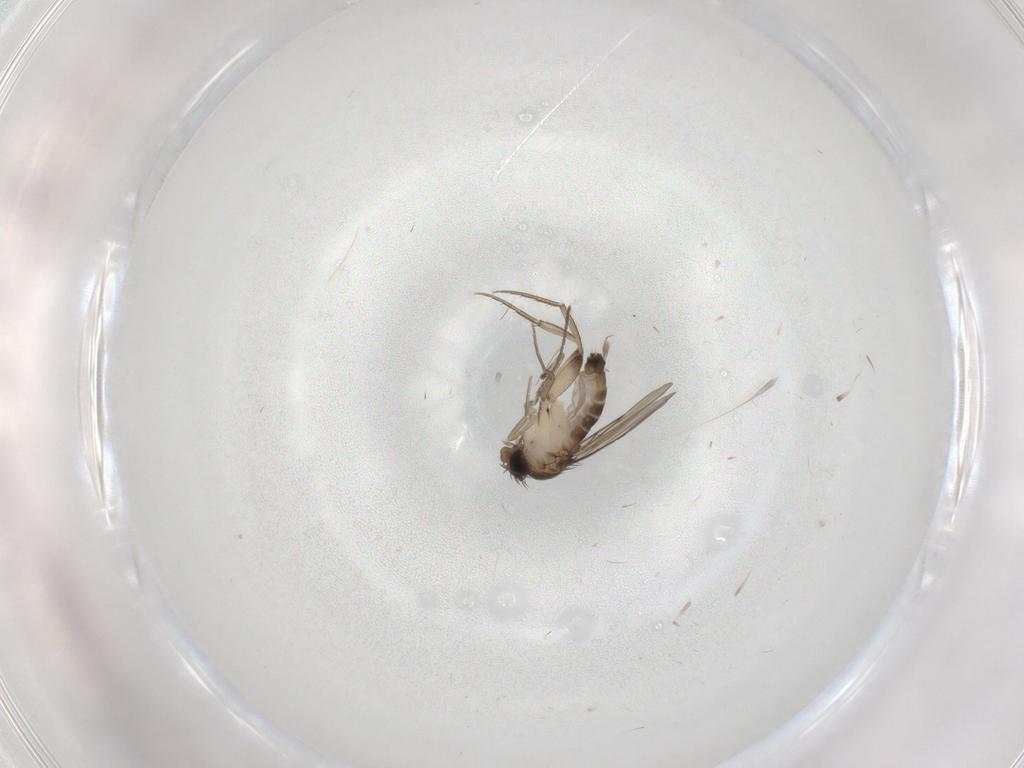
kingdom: Animalia
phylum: Arthropoda
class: Insecta
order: Diptera
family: Phoridae
